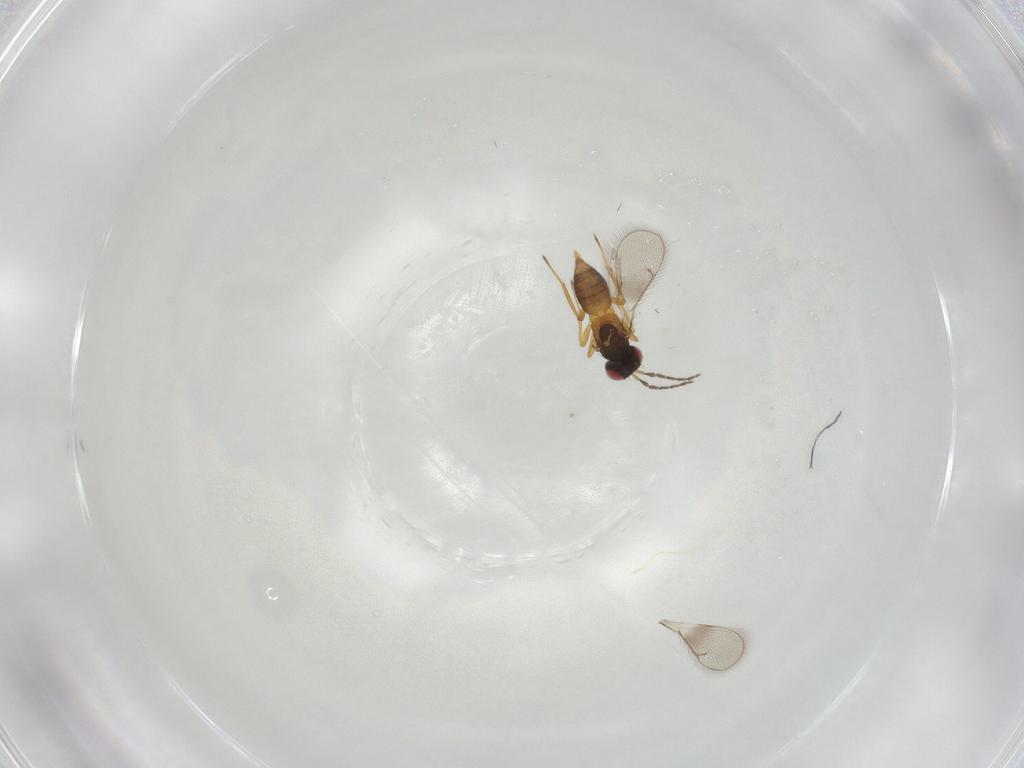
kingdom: Animalia
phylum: Arthropoda
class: Insecta
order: Hymenoptera
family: Eulophidae
